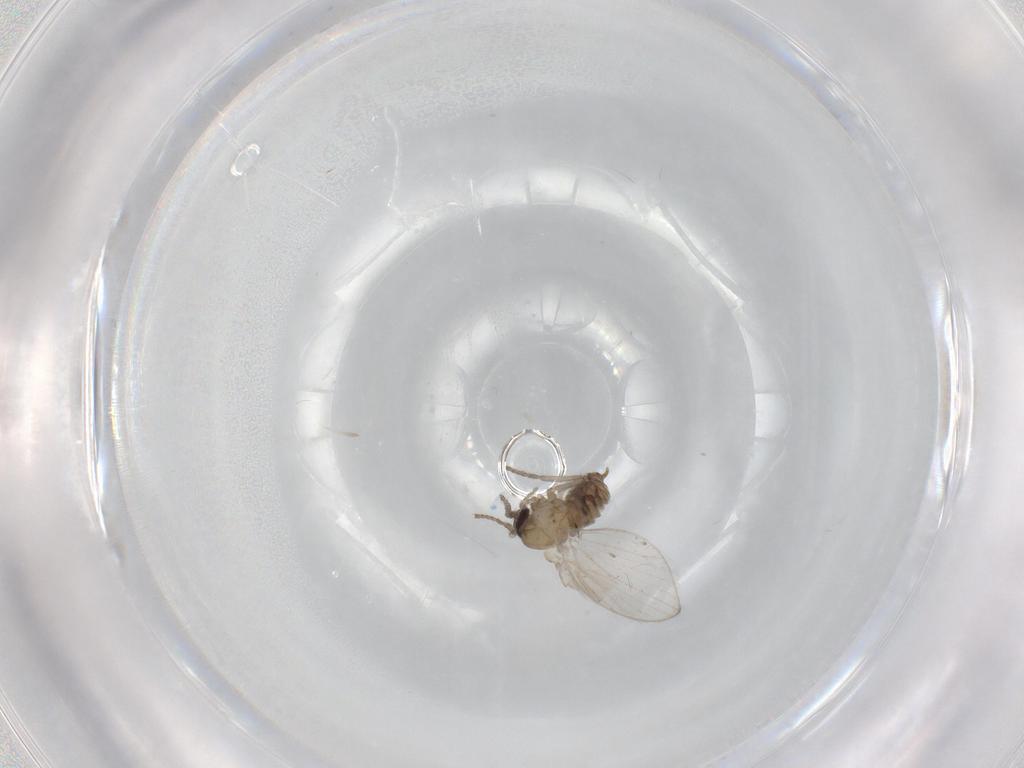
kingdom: Animalia
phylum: Arthropoda
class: Insecta
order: Diptera
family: Psychodidae
